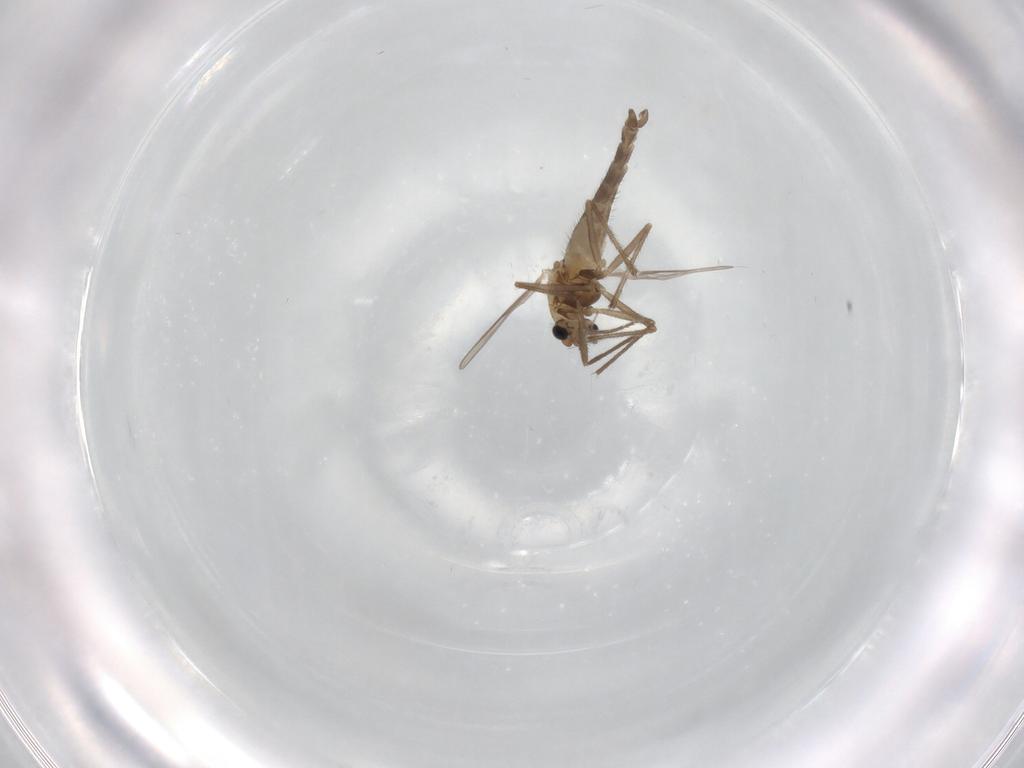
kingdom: Animalia
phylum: Arthropoda
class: Insecta
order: Diptera
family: Chironomidae
